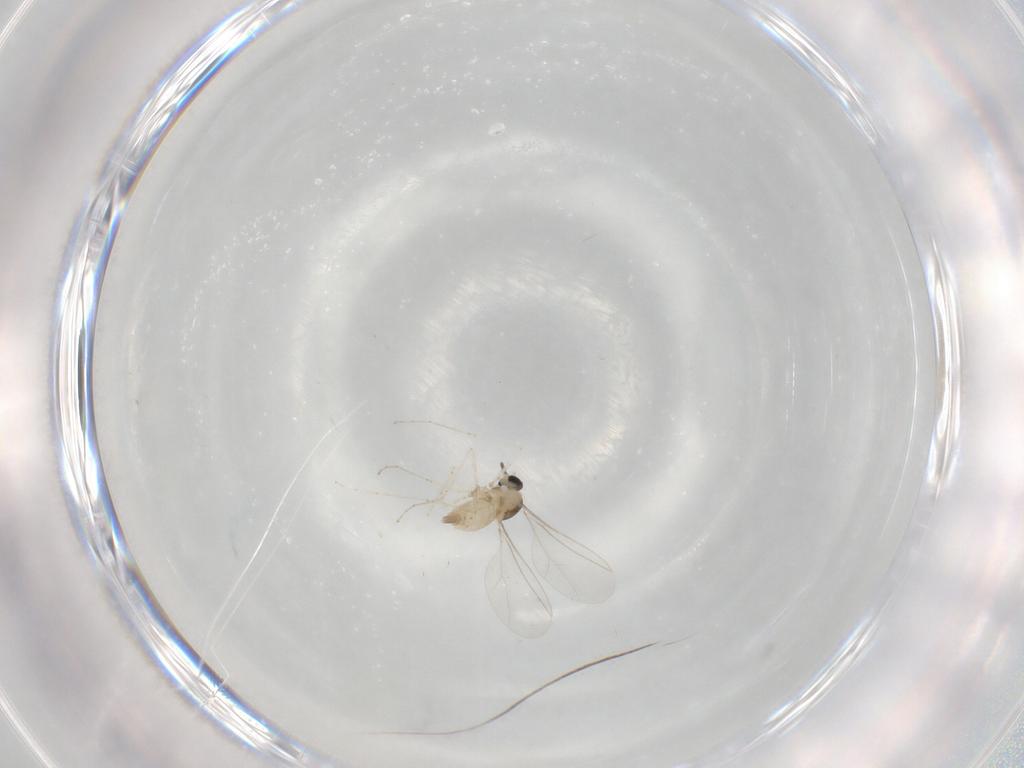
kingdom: Animalia
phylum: Arthropoda
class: Insecta
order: Diptera
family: Cecidomyiidae
